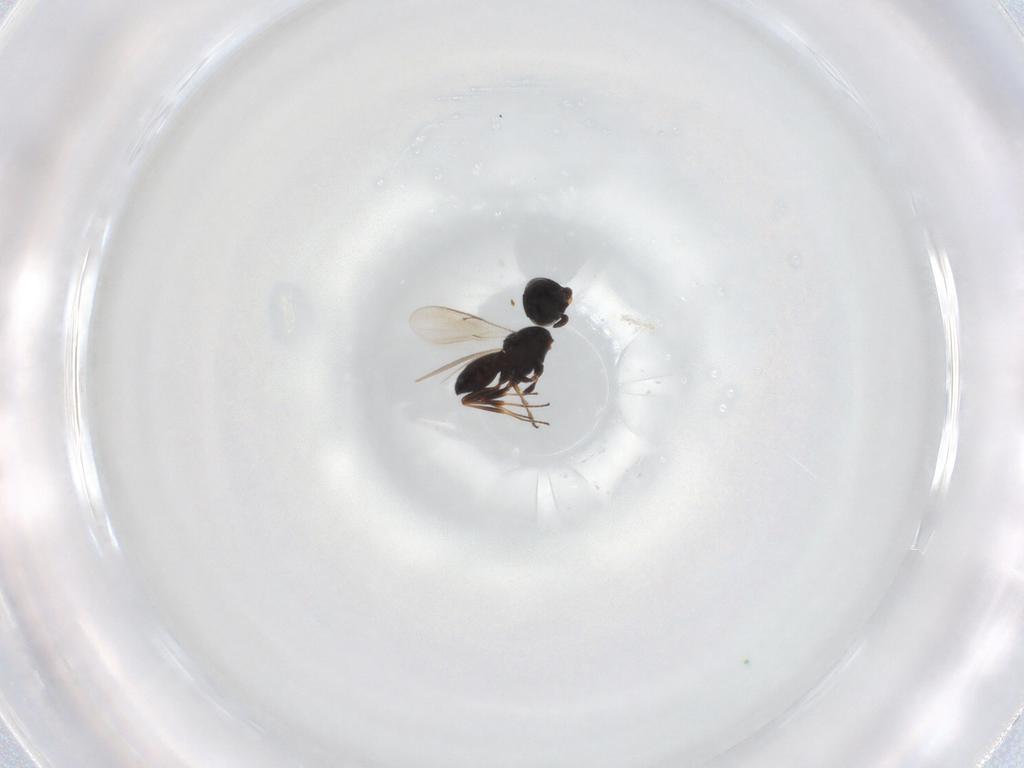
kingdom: Animalia
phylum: Arthropoda
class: Insecta
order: Hymenoptera
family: Scelionidae
